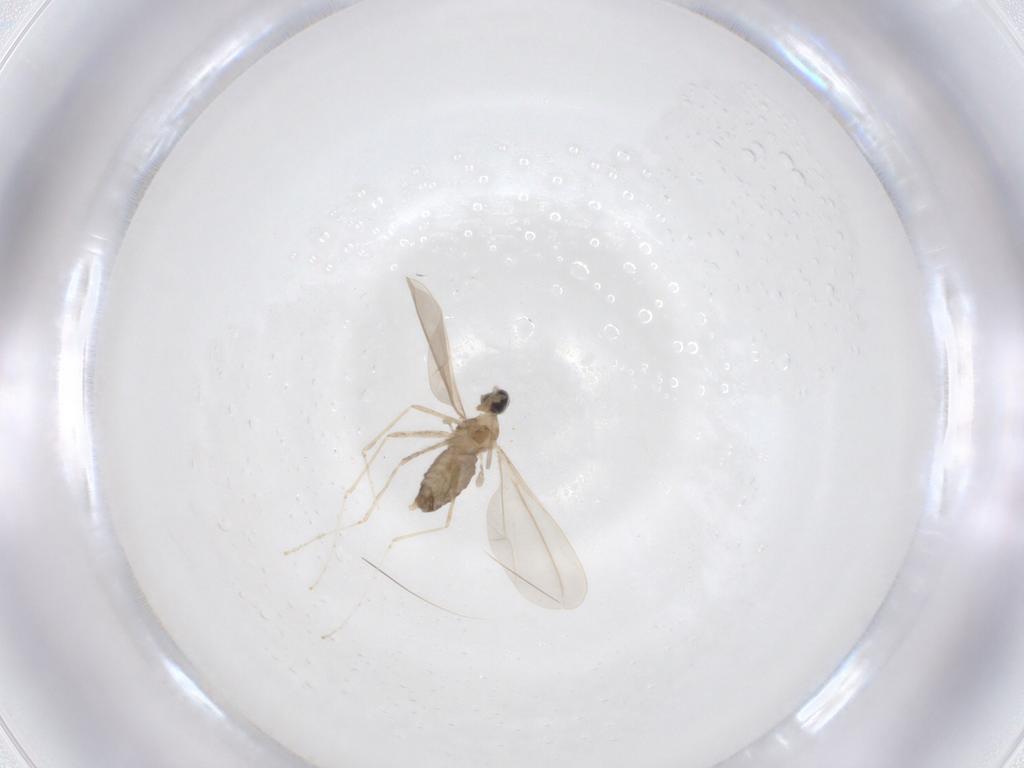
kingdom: Animalia
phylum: Arthropoda
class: Insecta
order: Diptera
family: Cecidomyiidae
